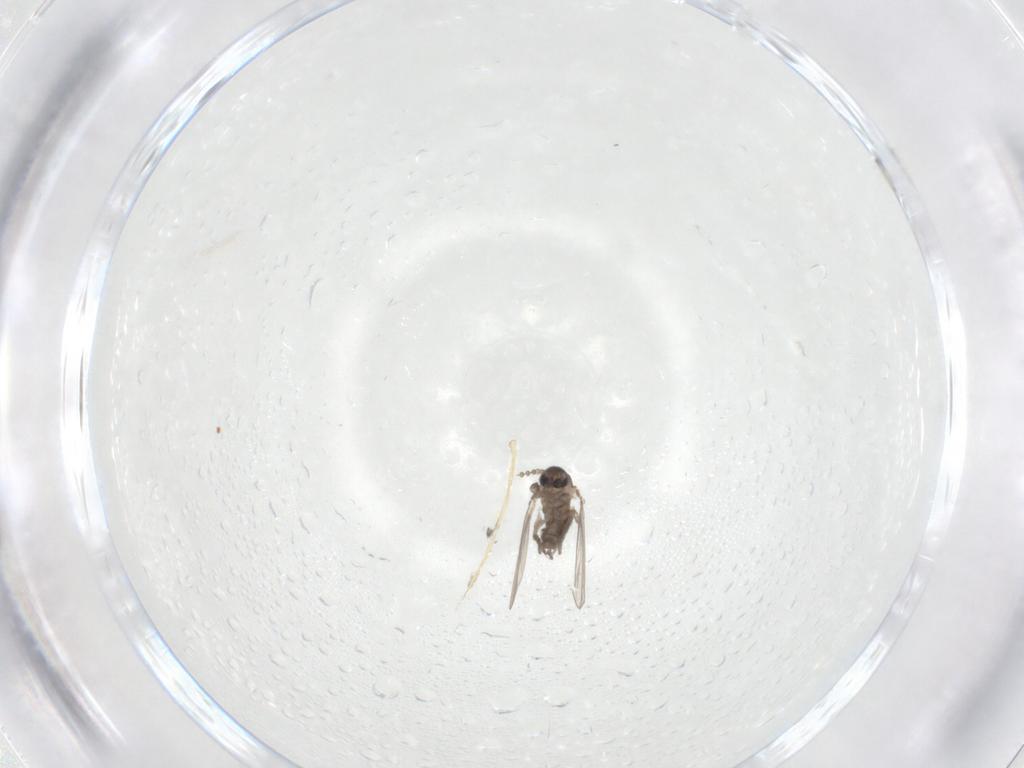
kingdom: Animalia
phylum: Arthropoda
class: Insecta
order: Diptera
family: Psychodidae
